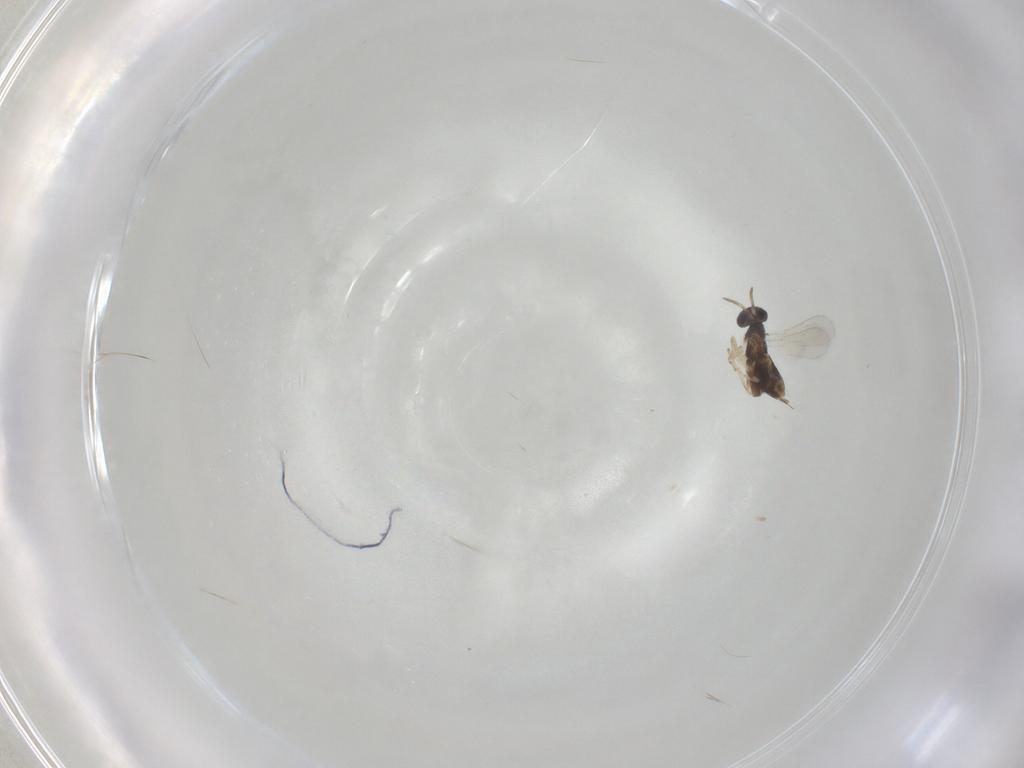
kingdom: Animalia
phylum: Arthropoda
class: Insecta
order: Hymenoptera
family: Aphelinidae
